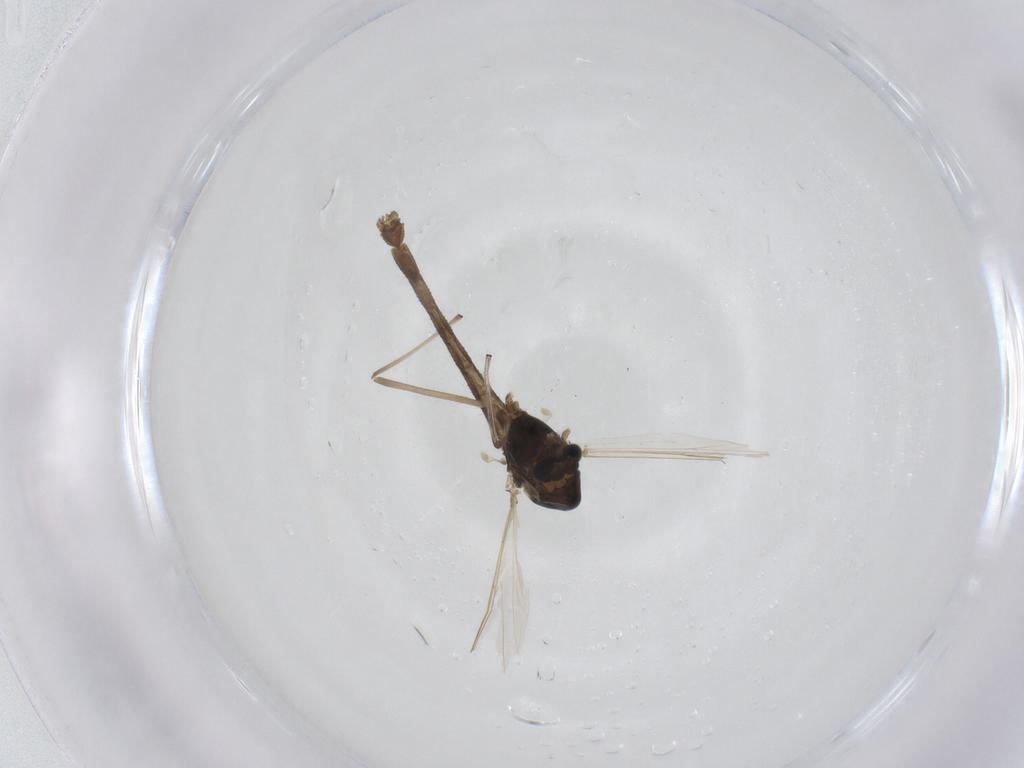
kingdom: Animalia
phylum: Arthropoda
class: Insecta
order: Diptera
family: Chironomidae
